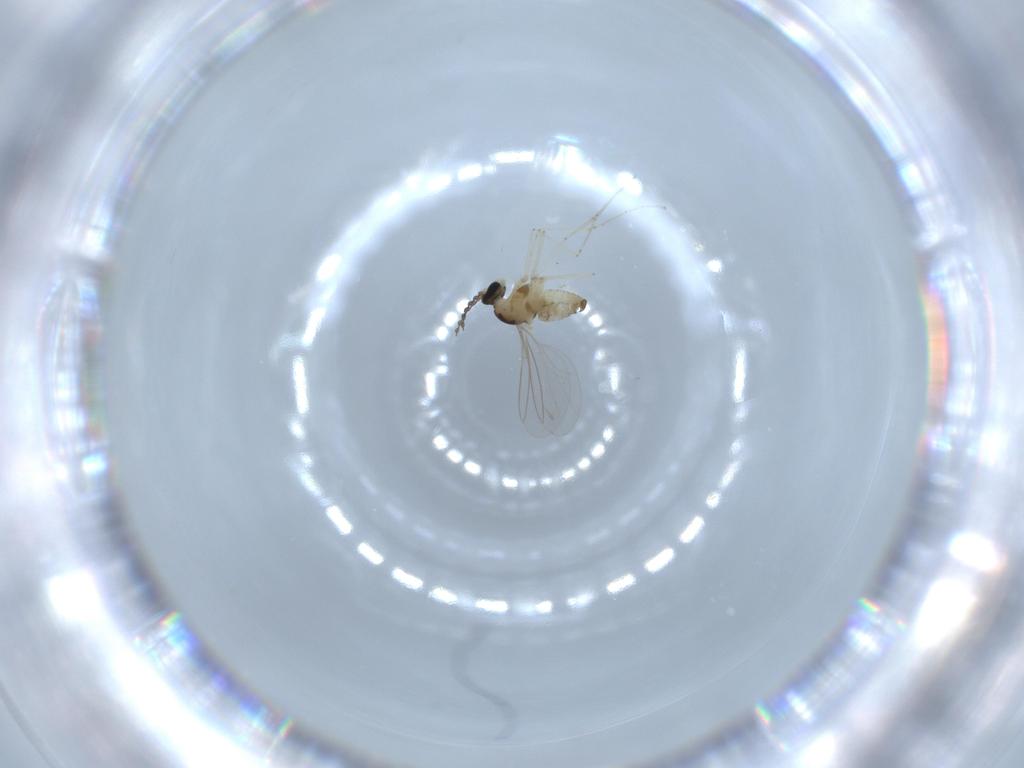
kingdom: Animalia
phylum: Arthropoda
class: Insecta
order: Diptera
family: Cecidomyiidae
